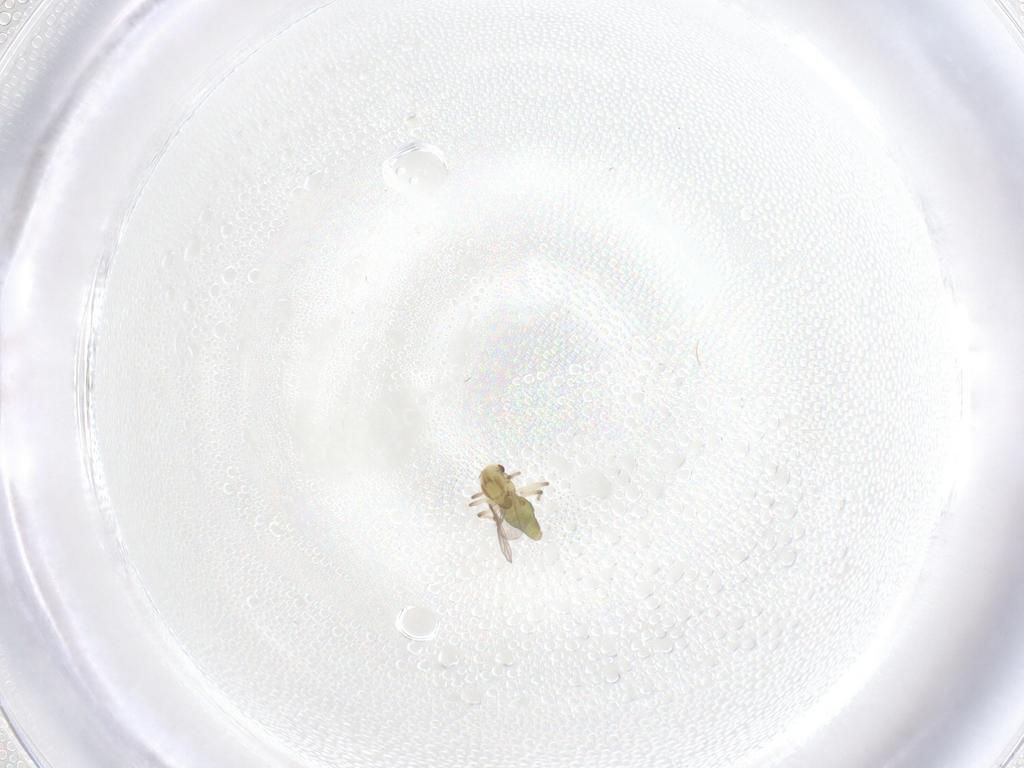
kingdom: Animalia
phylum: Arthropoda
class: Insecta
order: Diptera
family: Chironomidae
